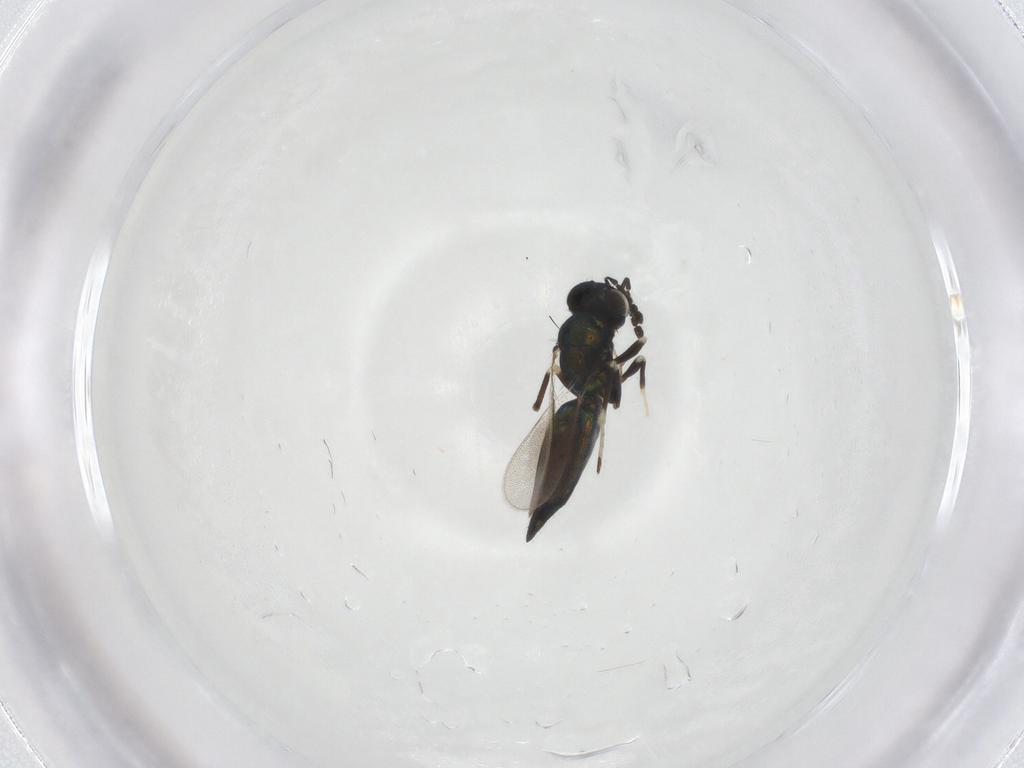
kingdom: Animalia
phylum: Arthropoda
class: Insecta
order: Hymenoptera
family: Eulophidae
